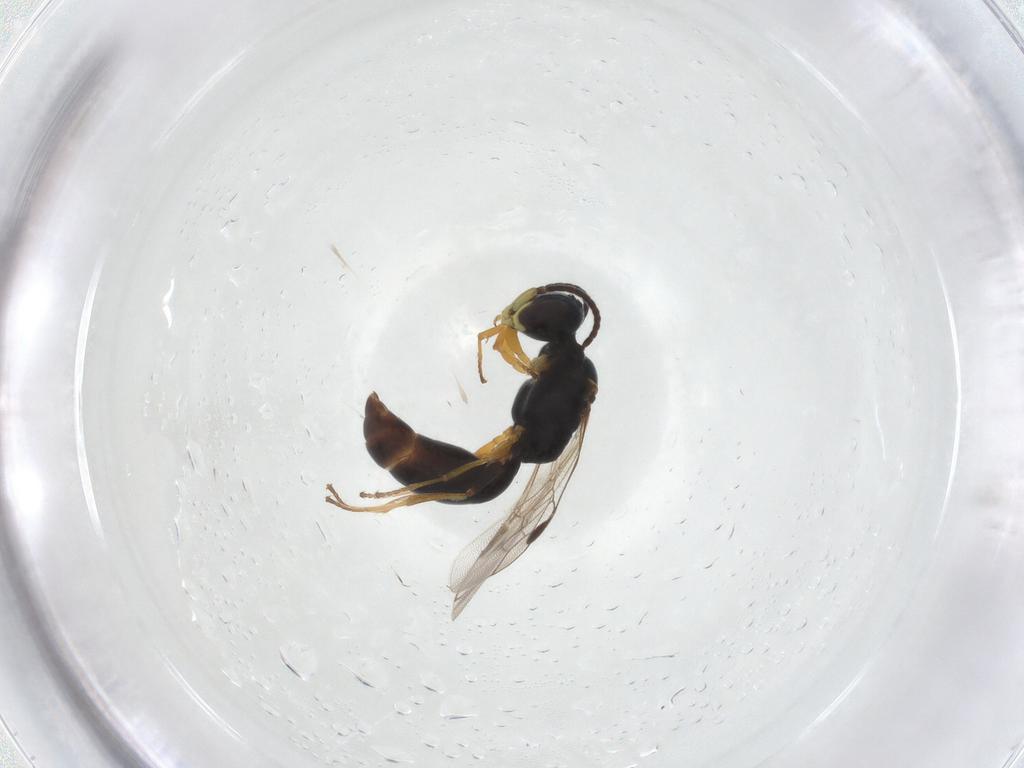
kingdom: Animalia
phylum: Arthropoda
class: Insecta
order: Hymenoptera
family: Pemphredonidae
